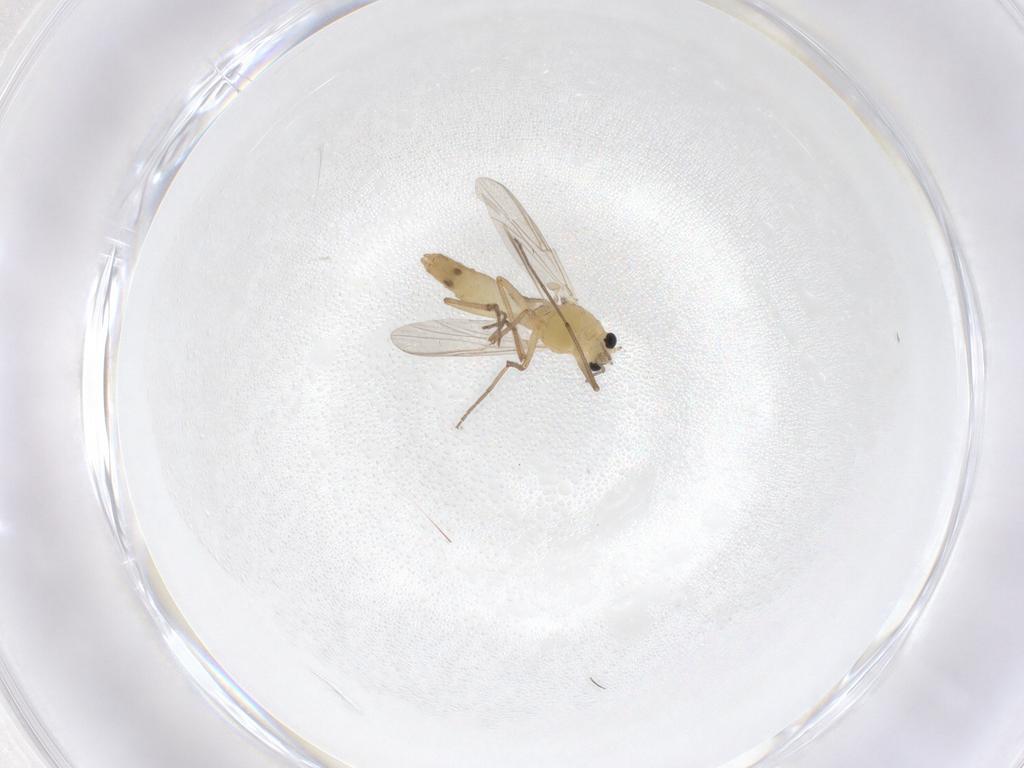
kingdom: Animalia
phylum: Arthropoda
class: Insecta
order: Diptera
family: Chironomidae
